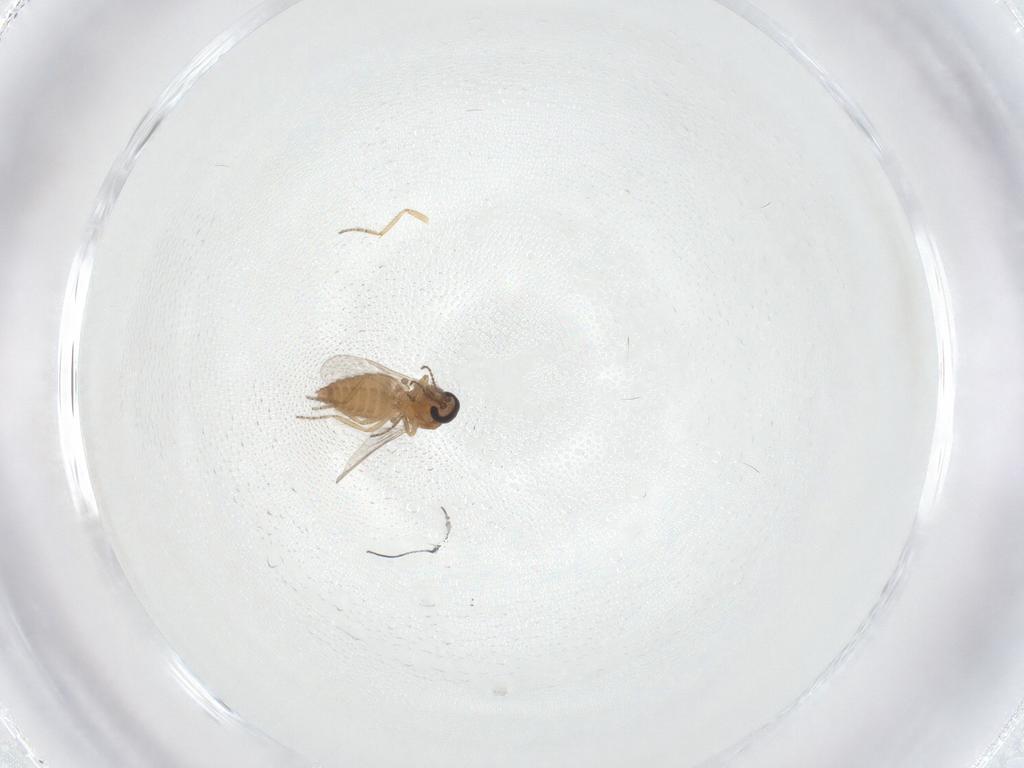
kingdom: Animalia
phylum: Arthropoda
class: Insecta
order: Diptera
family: Ceratopogonidae
